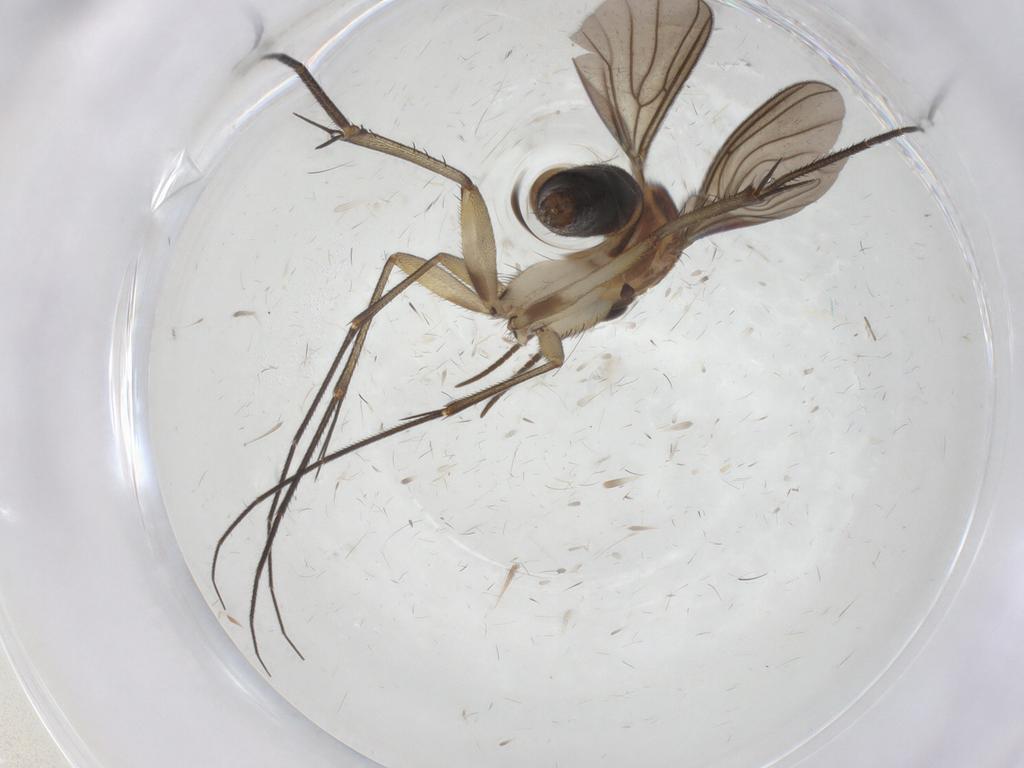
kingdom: Animalia
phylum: Arthropoda
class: Insecta
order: Diptera
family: Mycetophilidae
